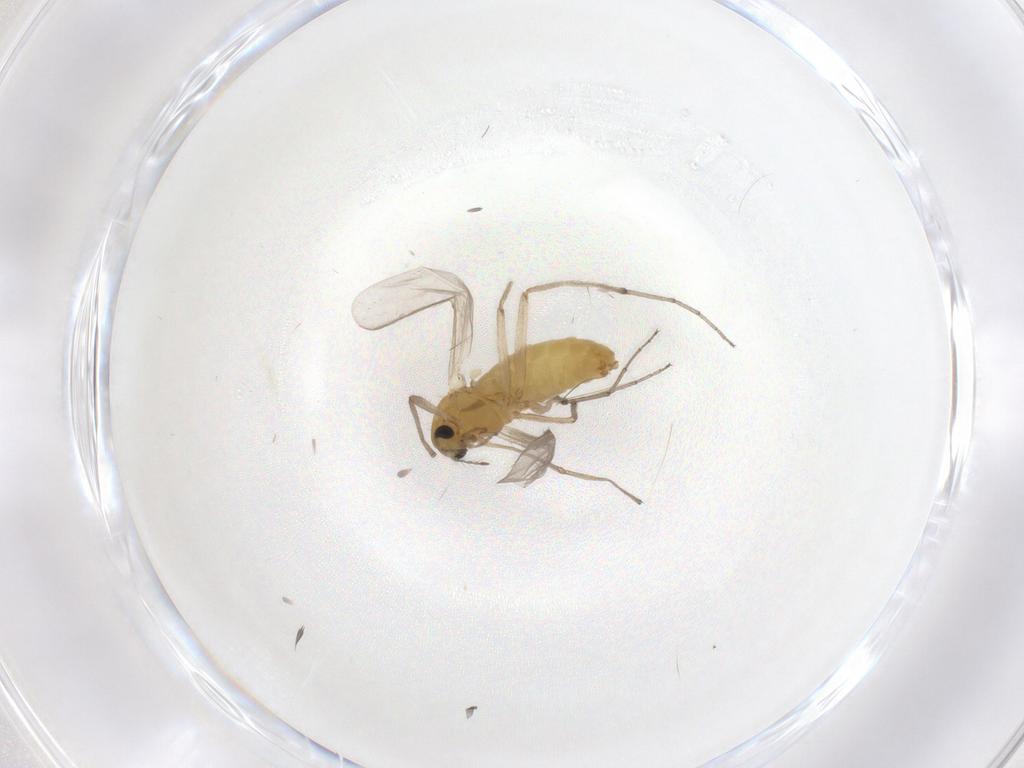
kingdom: Animalia
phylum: Arthropoda
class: Insecta
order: Diptera
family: Chironomidae
